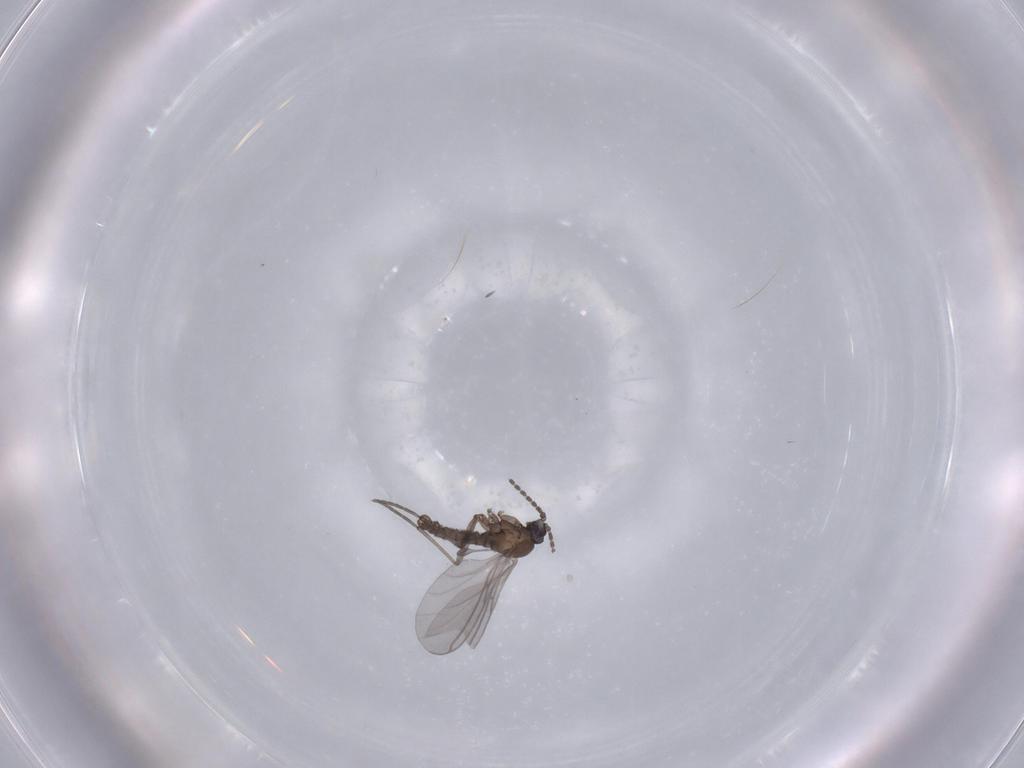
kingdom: Animalia
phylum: Arthropoda
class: Insecta
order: Diptera
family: Sciaridae
